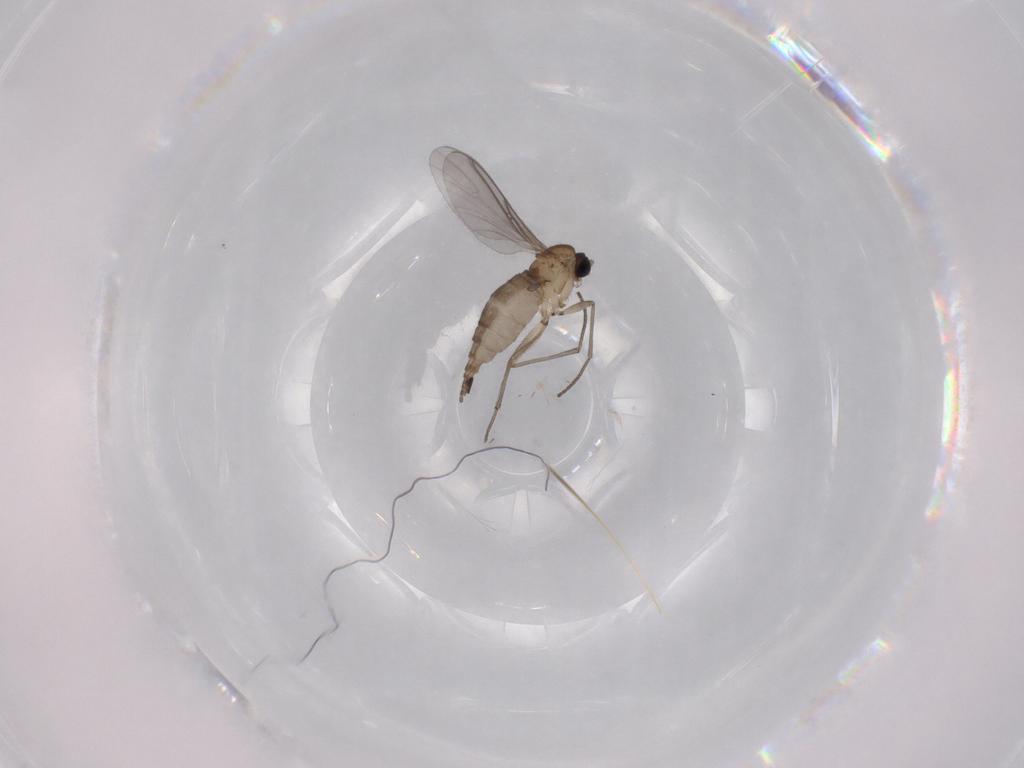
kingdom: Animalia
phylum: Arthropoda
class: Insecta
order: Diptera
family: Sciaridae
